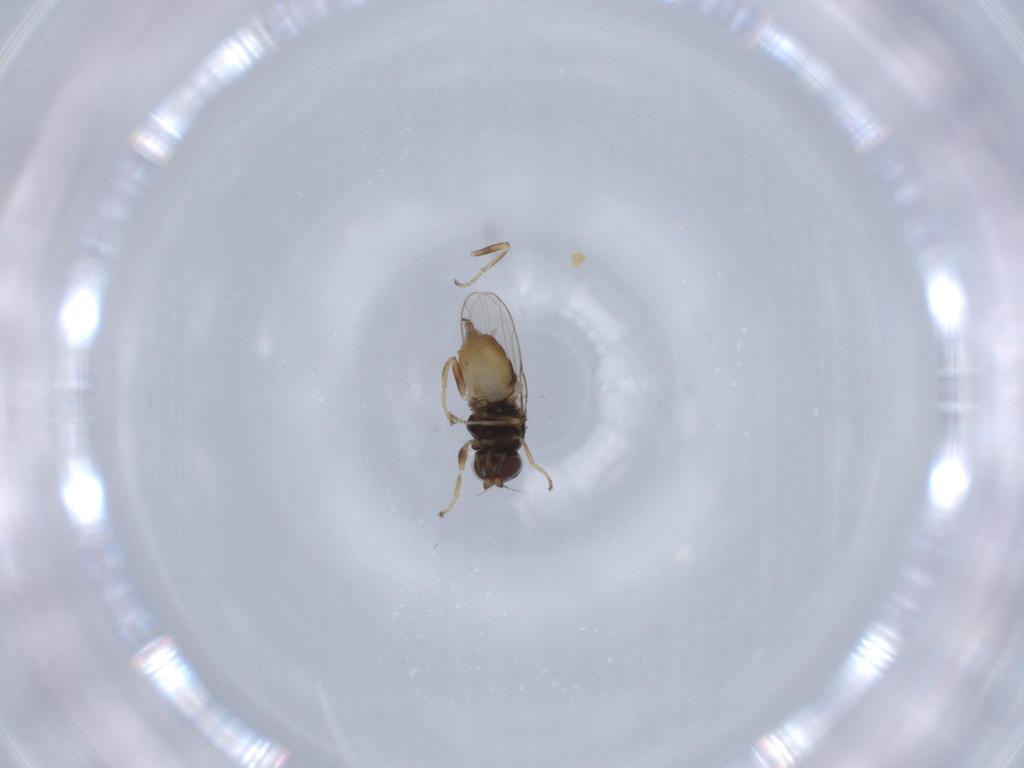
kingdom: Animalia
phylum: Arthropoda
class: Insecta
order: Diptera
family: Chloropidae
